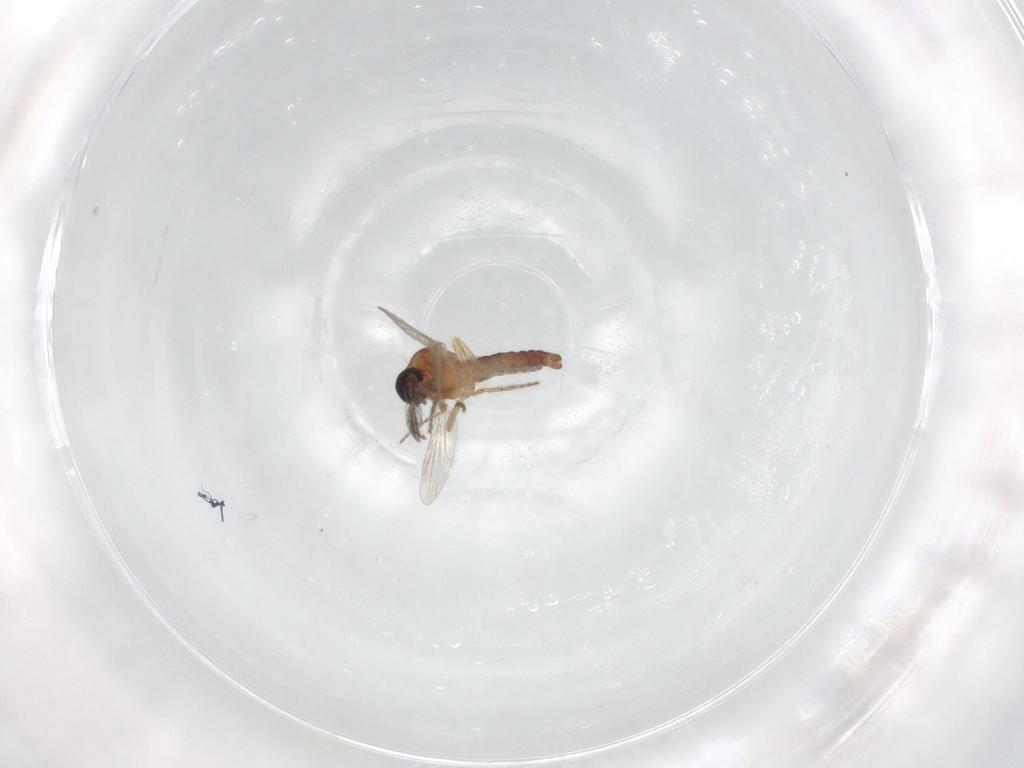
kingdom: Animalia
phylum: Arthropoda
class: Insecta
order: Diptera
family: Ceratopogonidae
